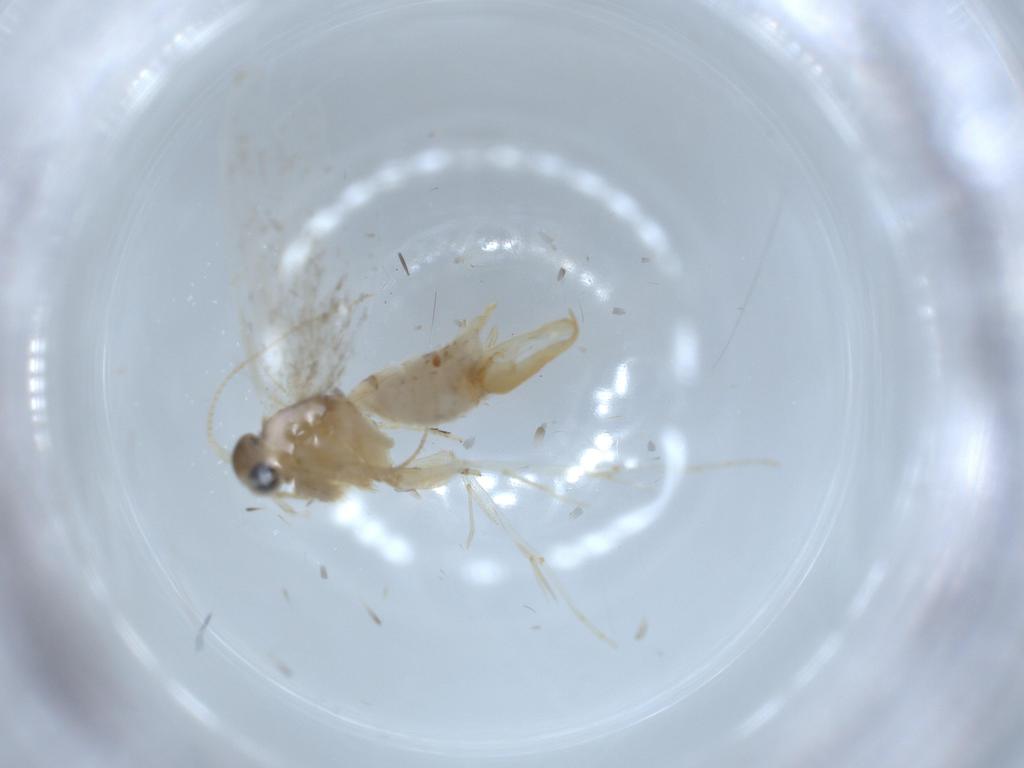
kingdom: Animalia
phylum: Arthropoda
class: Insecta
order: Lepidoptera
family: Tineidae
